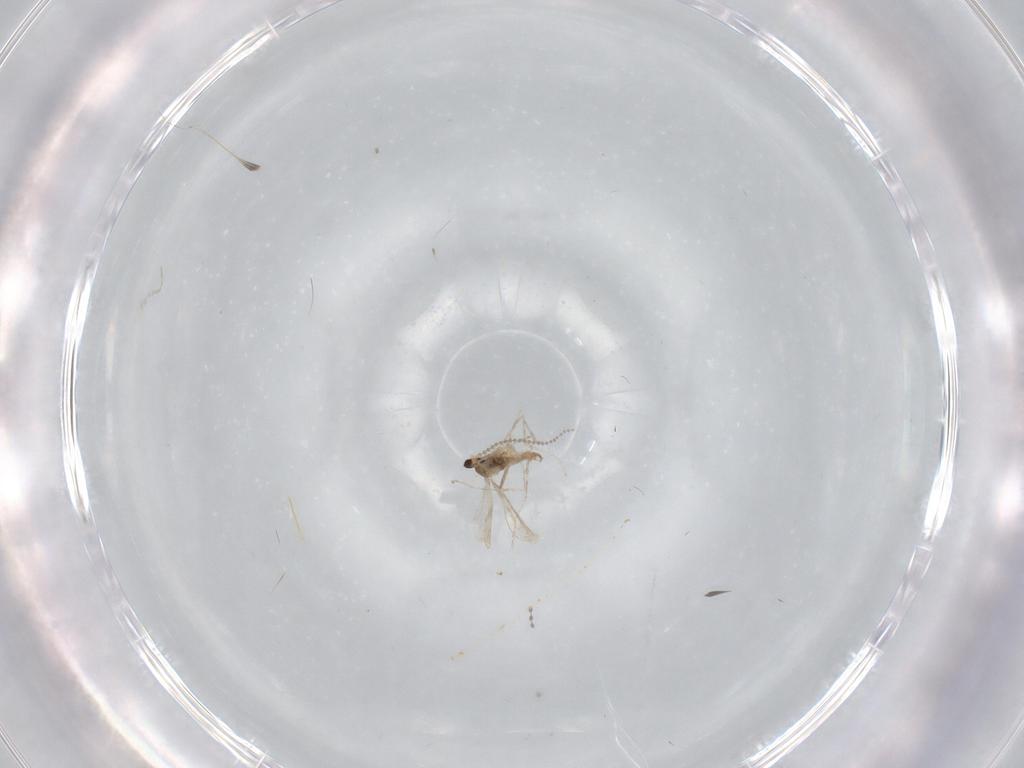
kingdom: Animalia
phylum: Arthropoda
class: Insecta
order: Diptera
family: Cecidomyiidae
